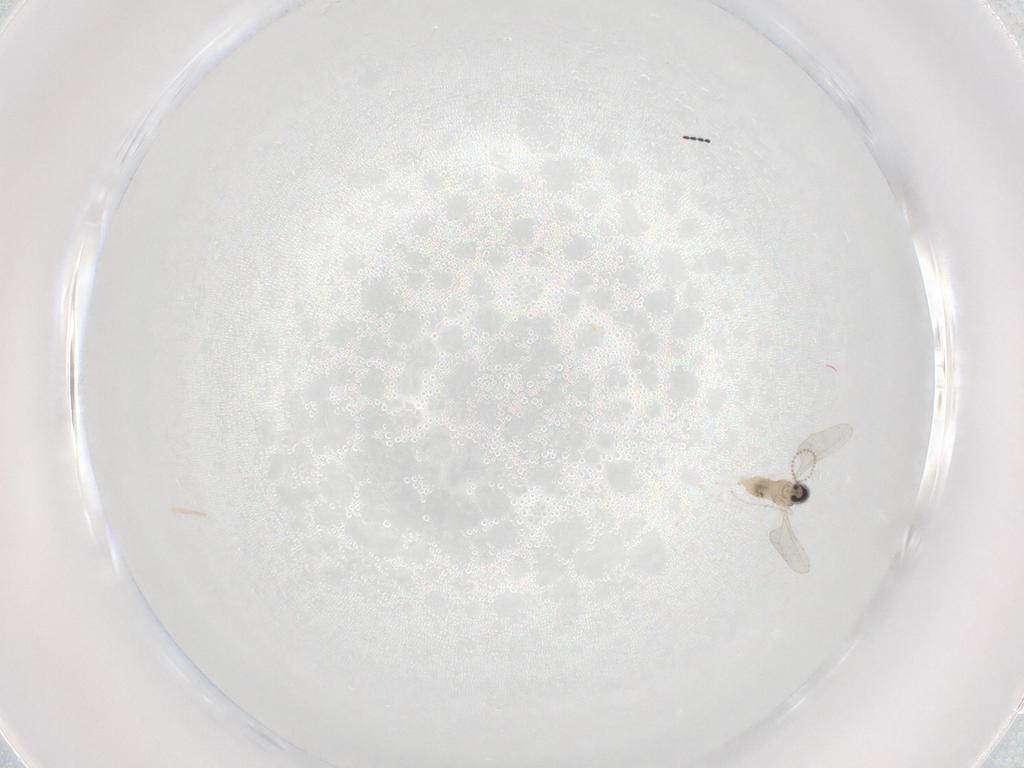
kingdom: Animalia
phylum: Arthropoda
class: Insecta
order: Diptera
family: Cecidomyiidae
